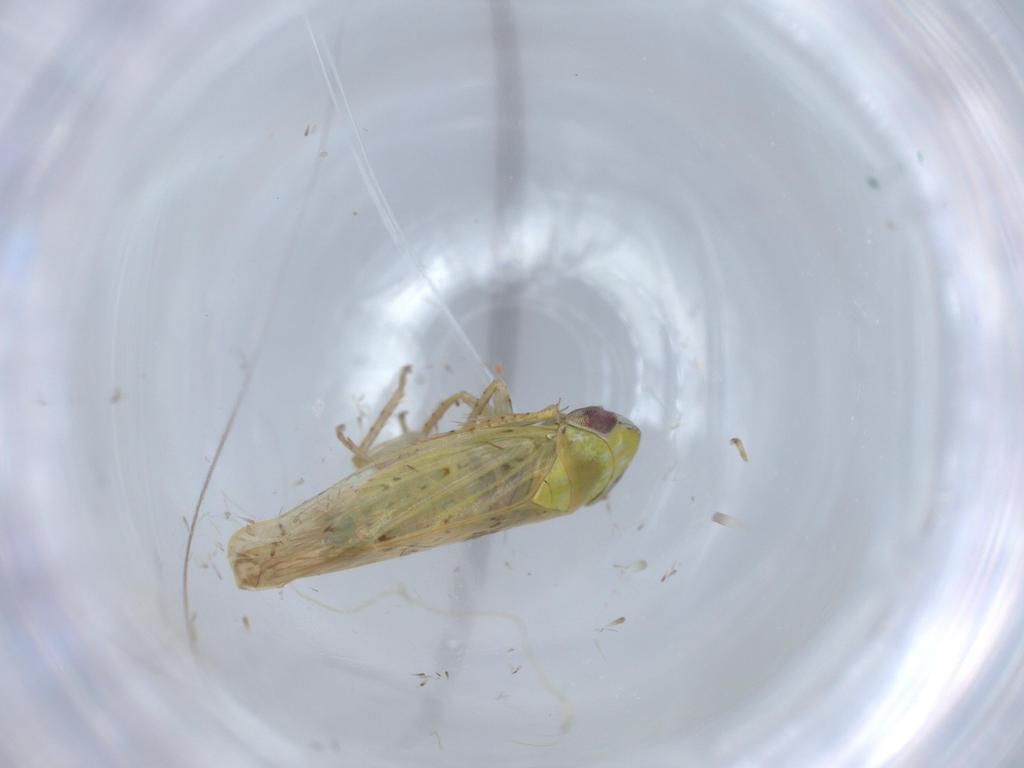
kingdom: Animalia
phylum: Arthropoda
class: Insecta
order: Hemiptera
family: Cicadellidae
